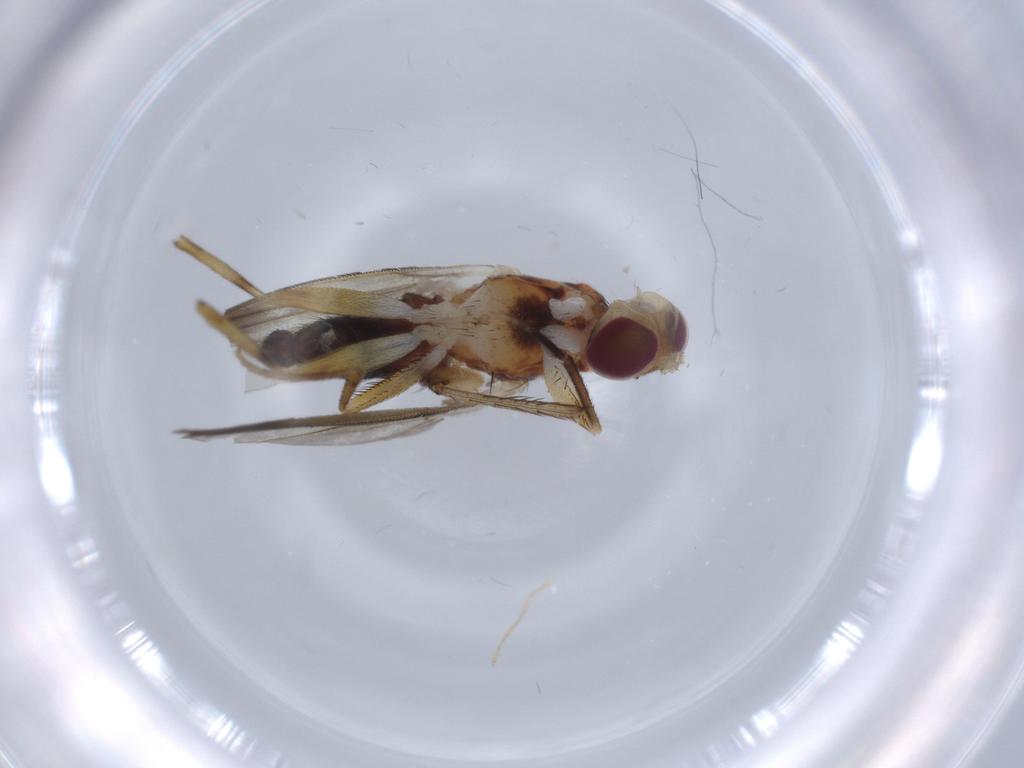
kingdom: Animalia
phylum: Arthropoda
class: Insecta
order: Diptera
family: Clusiidae
